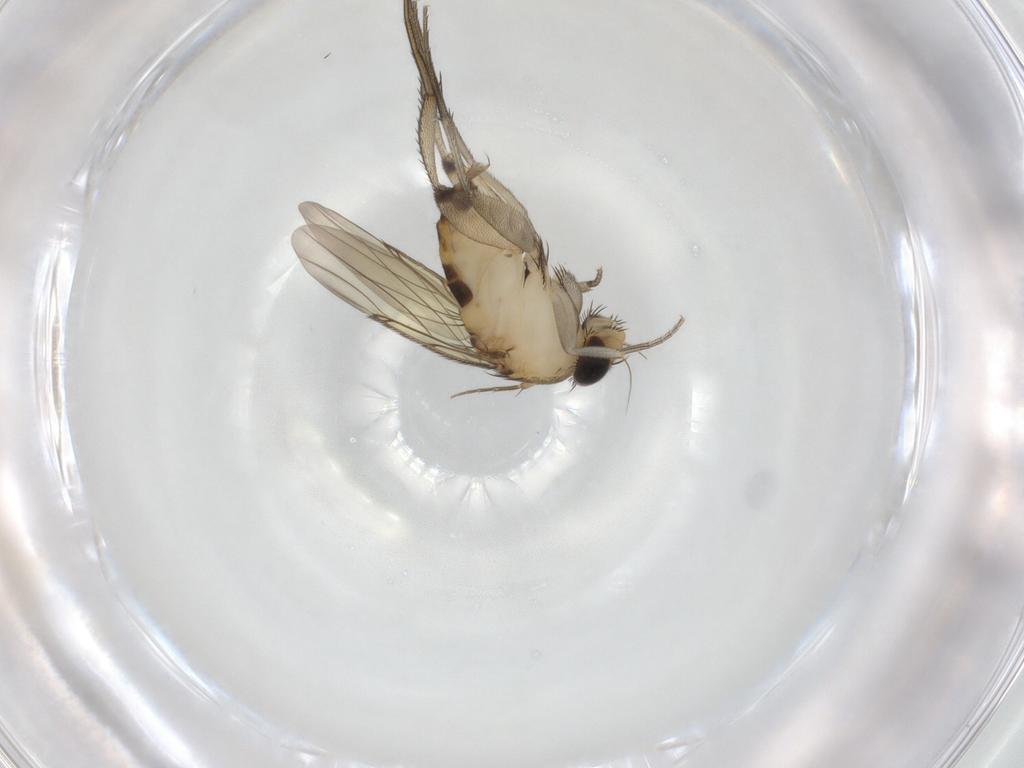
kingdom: Animalia
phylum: Arthropoda
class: Insecta
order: Diptera
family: Phoridae
